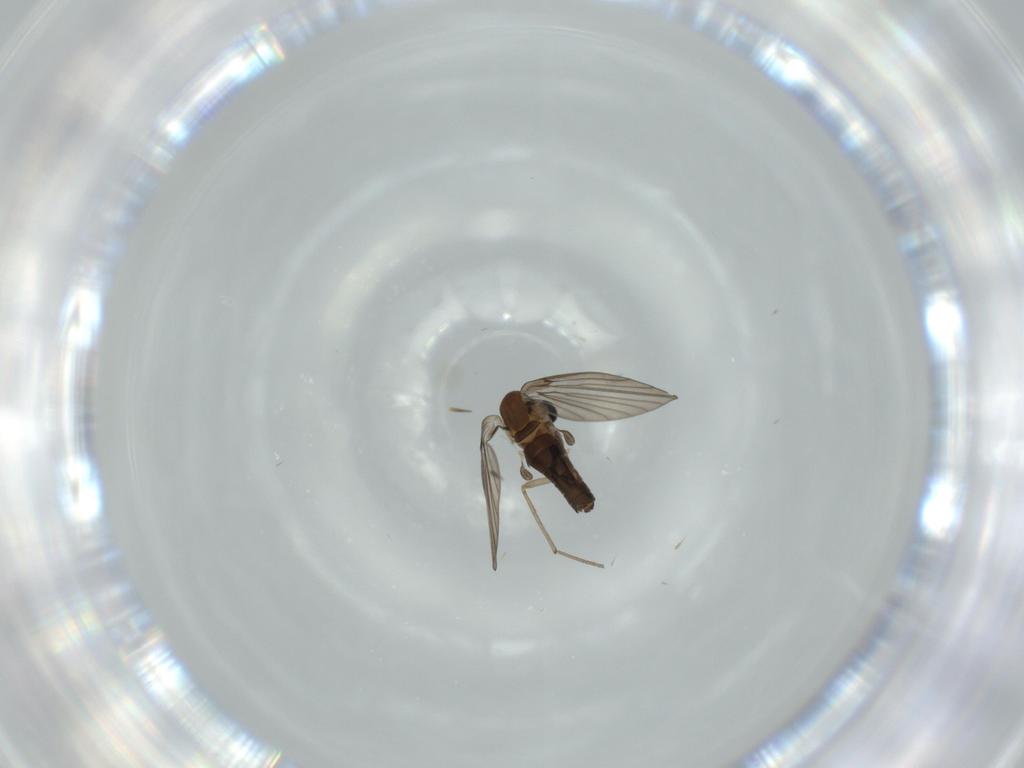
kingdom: Animalia
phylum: Arthropoda
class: Insecta
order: Diptera
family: Psychodidae
